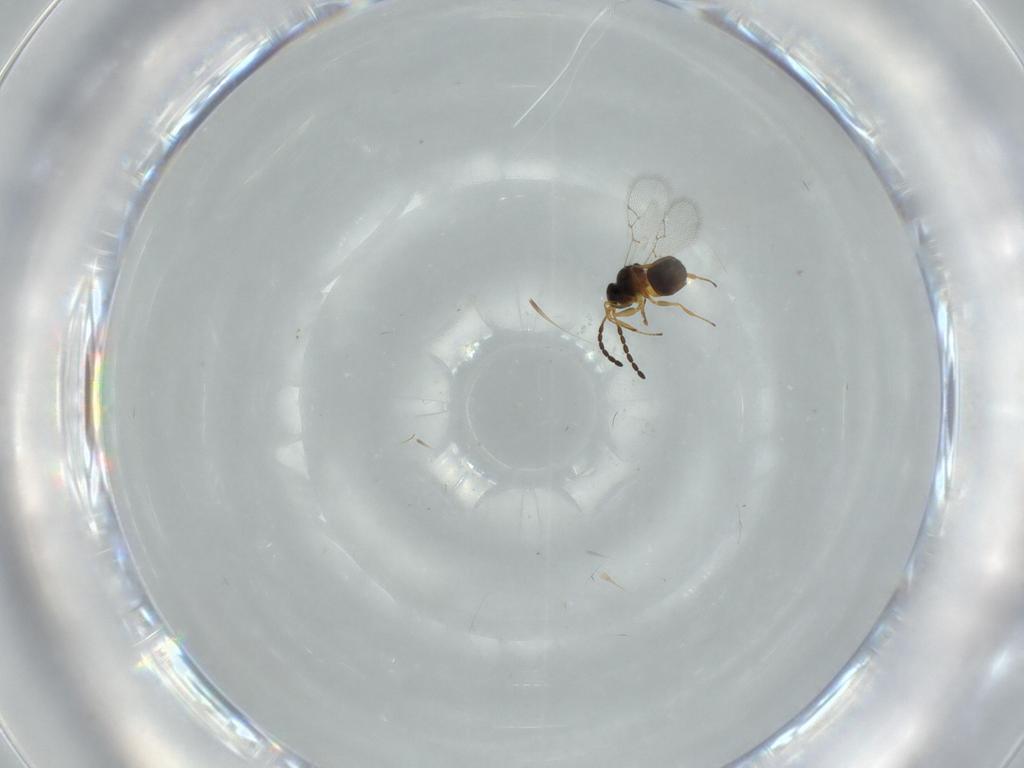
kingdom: Animalia
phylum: Arthropoda
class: Insecta
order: Hymenoptera
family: Figitidae
